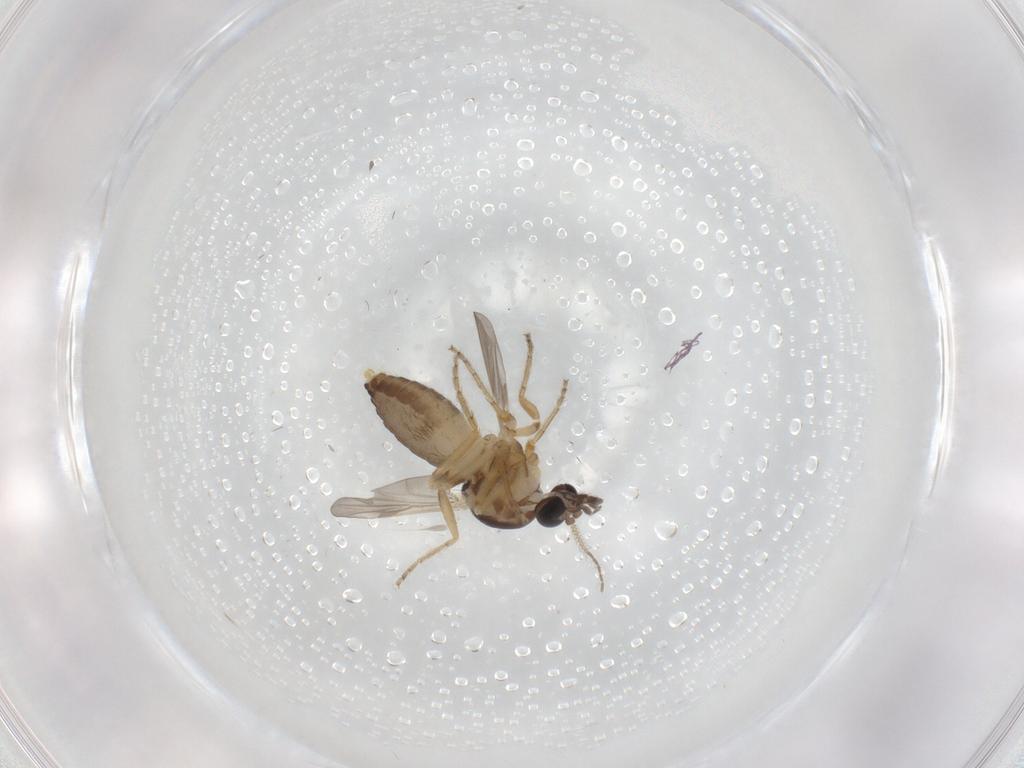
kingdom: Animalia
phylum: Arthropoda
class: Insecta
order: Diptera
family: Ceratopogonidae
